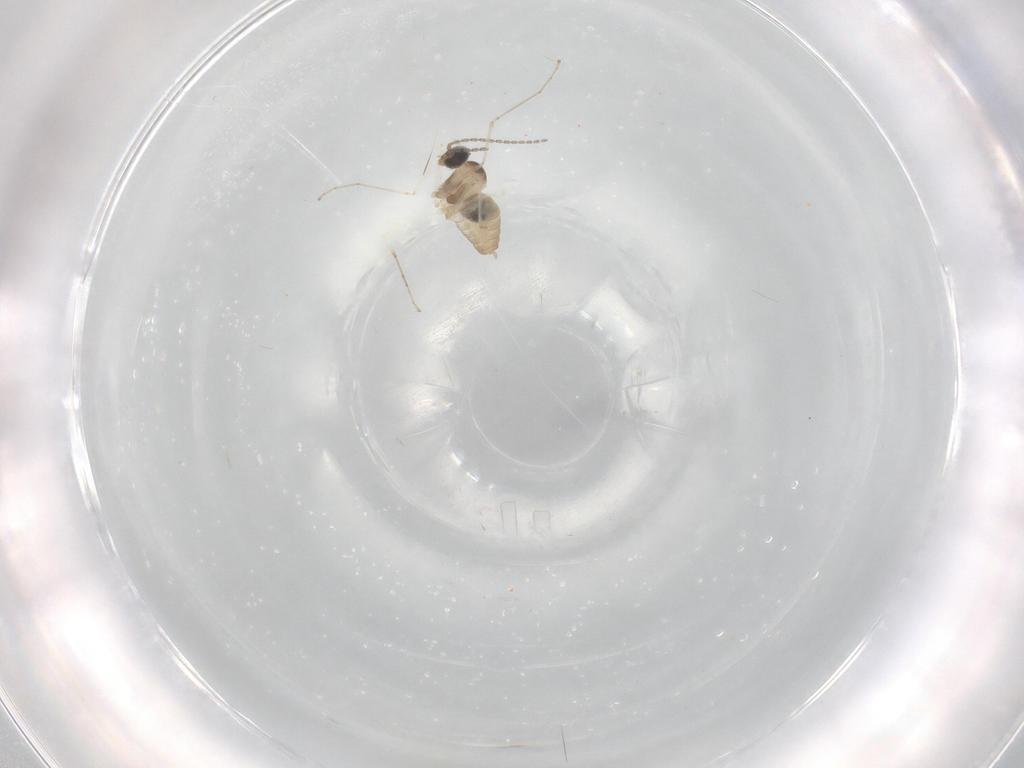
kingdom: Animalia
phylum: Arthropoda
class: Insecta
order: Diptera
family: Cecidomyiidae
